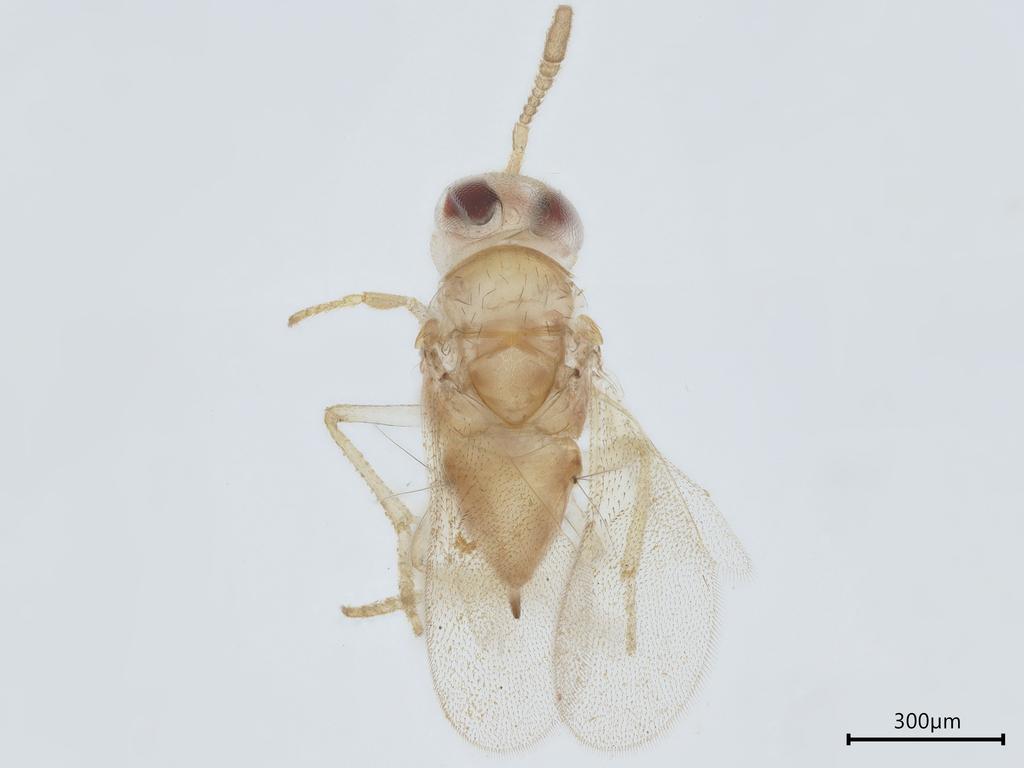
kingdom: Animalia
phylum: Arthropoda
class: Insecta
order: Hymenoptera
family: Encyrtidae
